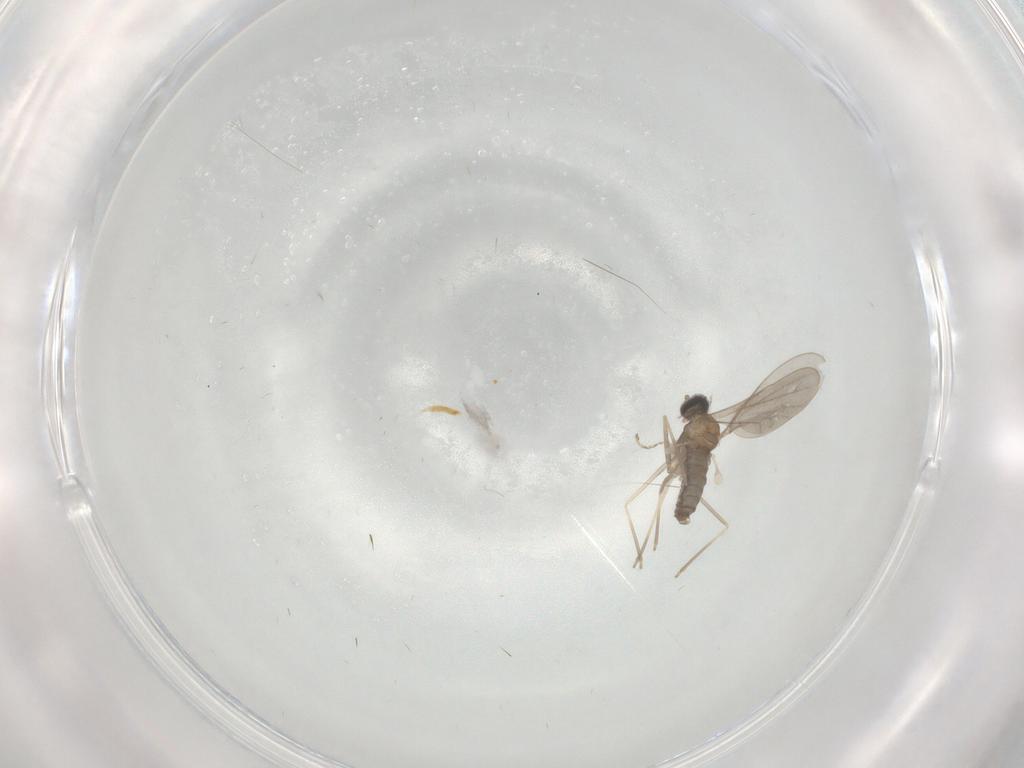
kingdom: Animalia
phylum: Arthropoda
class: Insecta
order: Diptera
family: Cecidomyiidae
